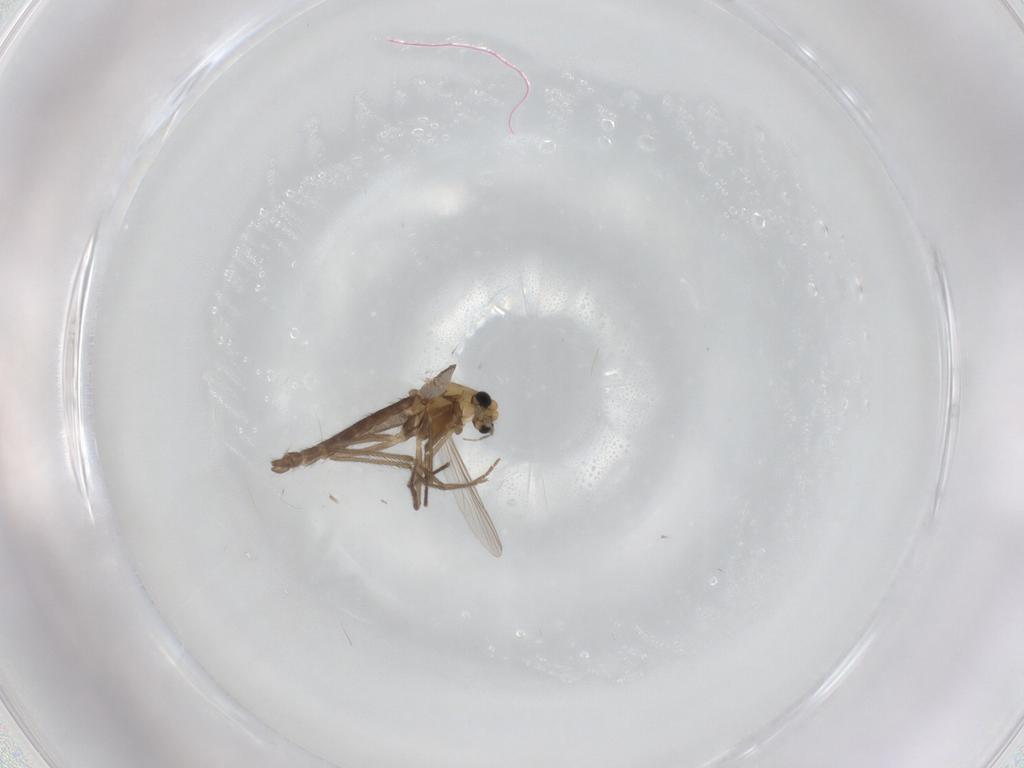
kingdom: Animalia
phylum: Arthropoda
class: Insecta
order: Diptera
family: Chironomidae
